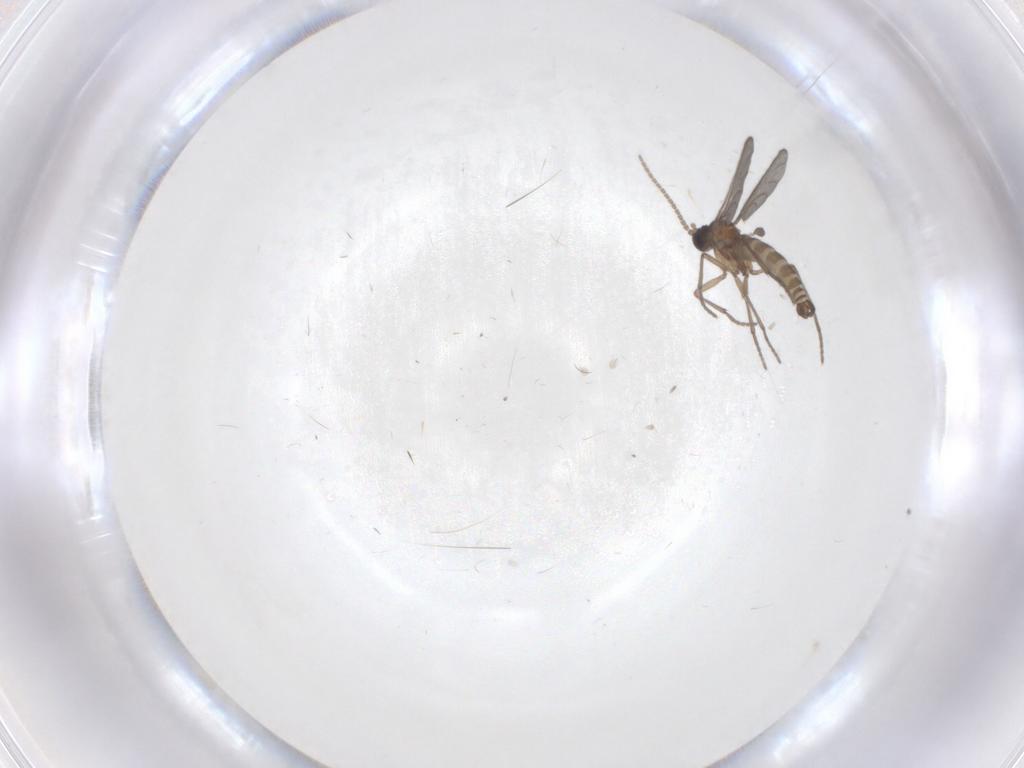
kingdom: Animalia
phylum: Arthropoda
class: Insecta
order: Diptera
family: Sciaridae
